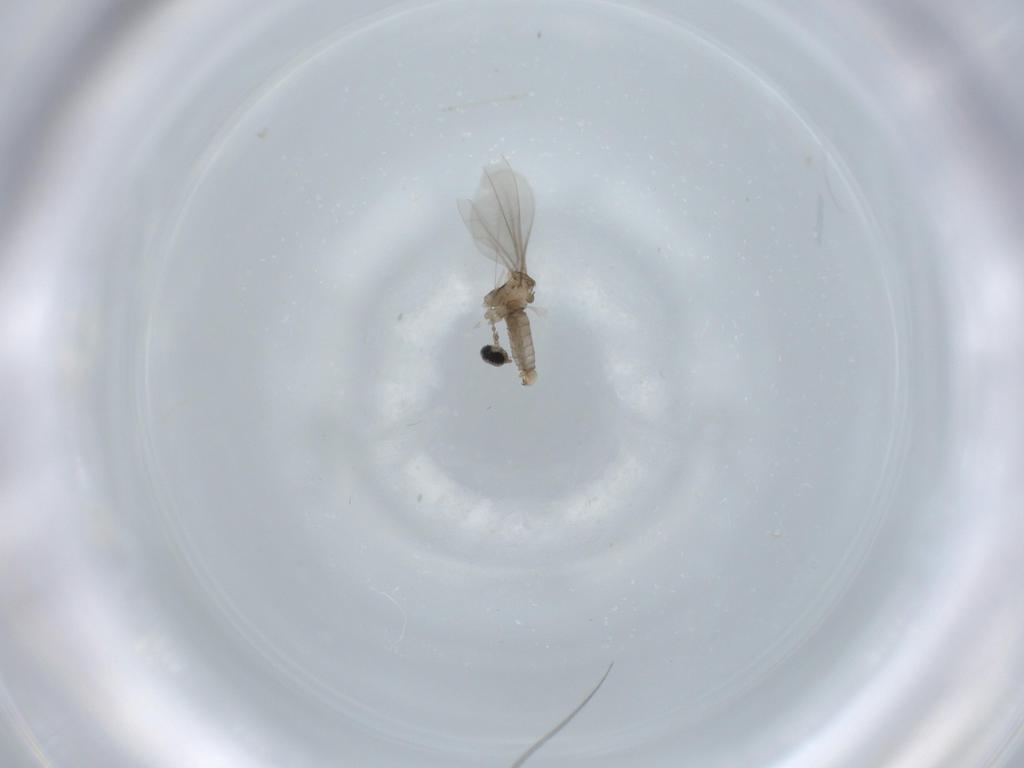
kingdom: Animalia
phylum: Arthropoda
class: Insecta
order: Diptera
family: Cecidomyiidae
